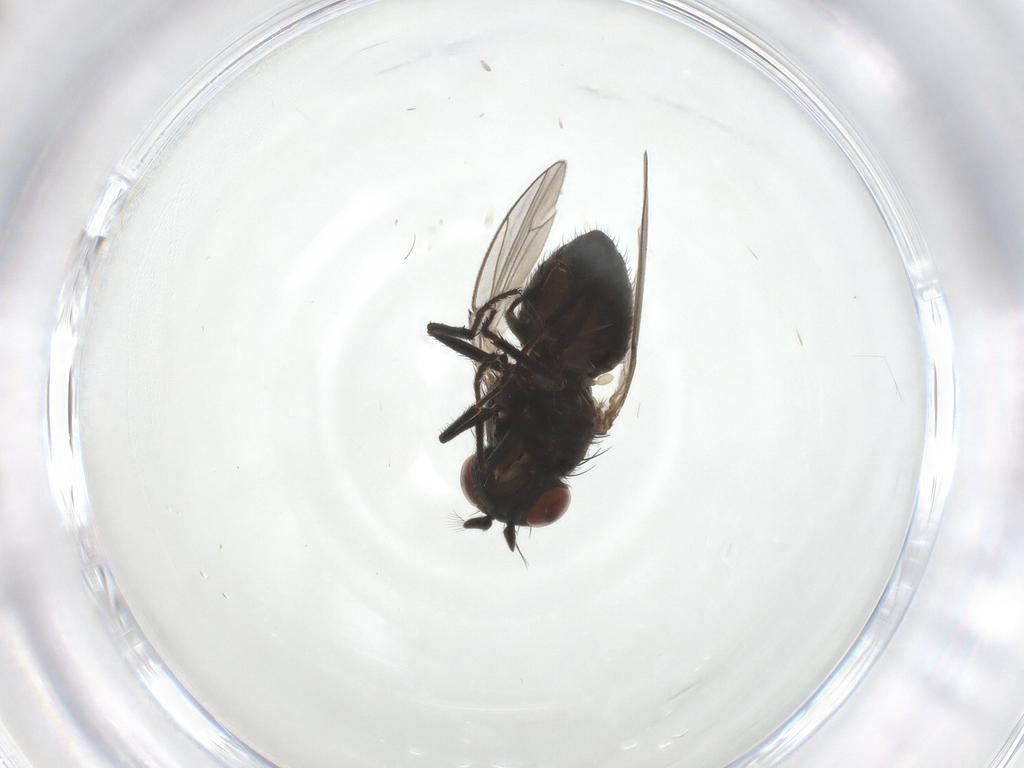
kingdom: Animalia
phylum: Arthropoda
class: Insecta
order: Diptera
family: Ephydridae
